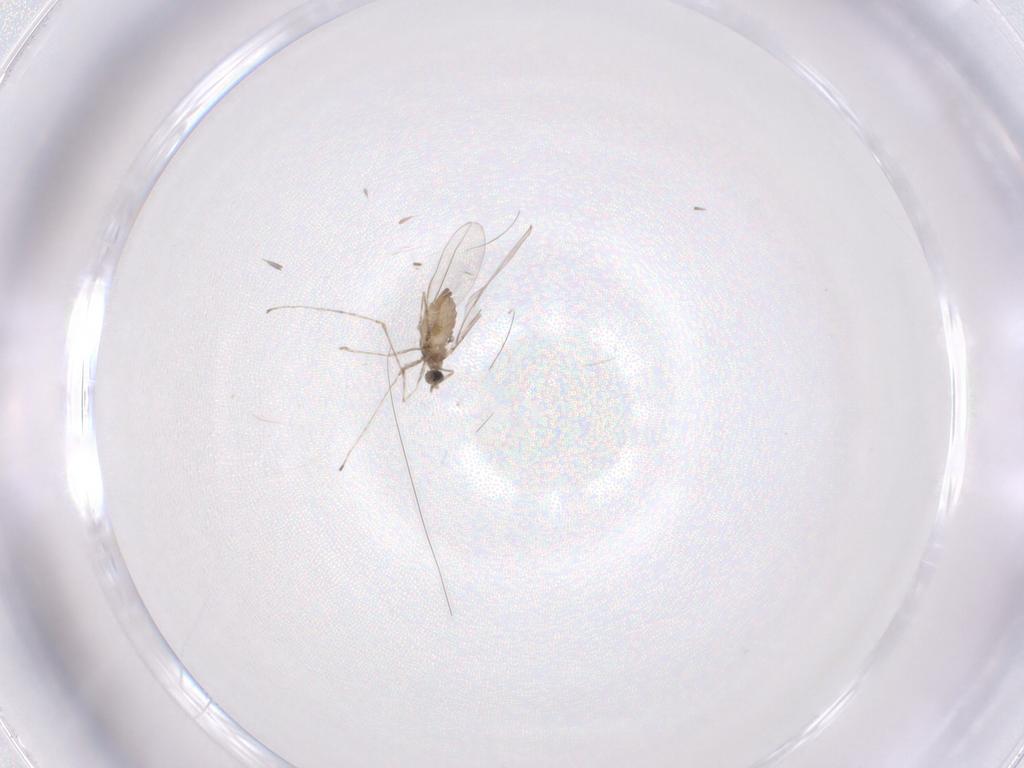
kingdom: Animalia
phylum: Arthropoda
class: Insecta
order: Diptera
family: Cecidomyiidae
